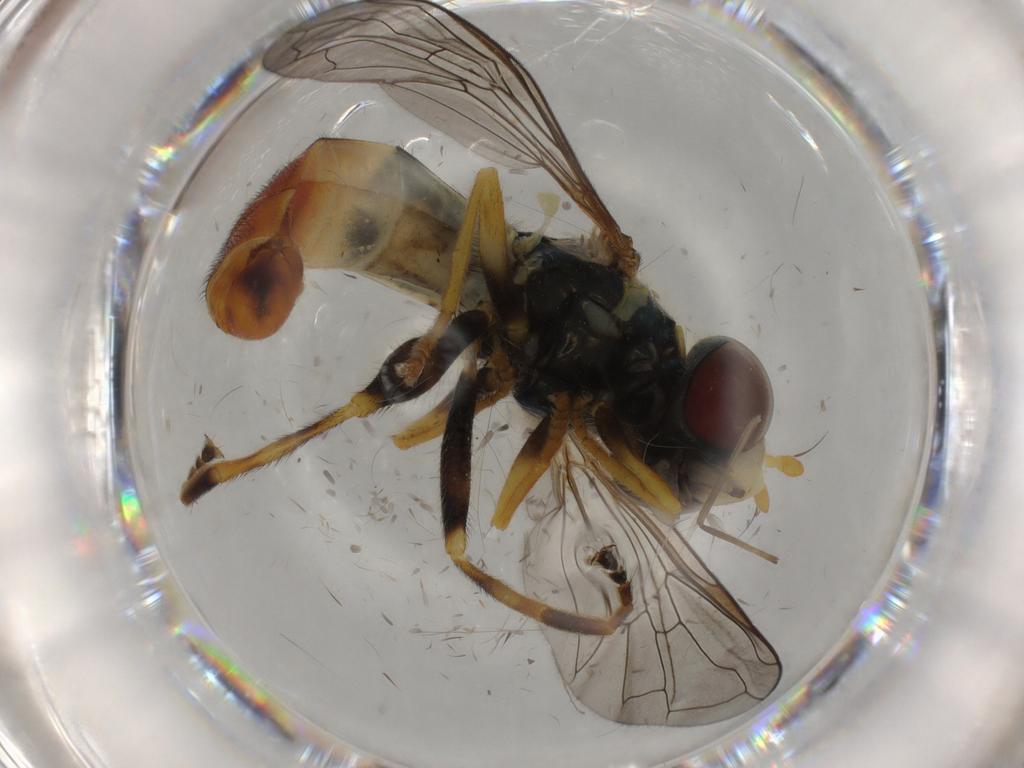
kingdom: Animalia
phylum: Arthropoda
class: Insecta
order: Diptera
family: Syrphidae
